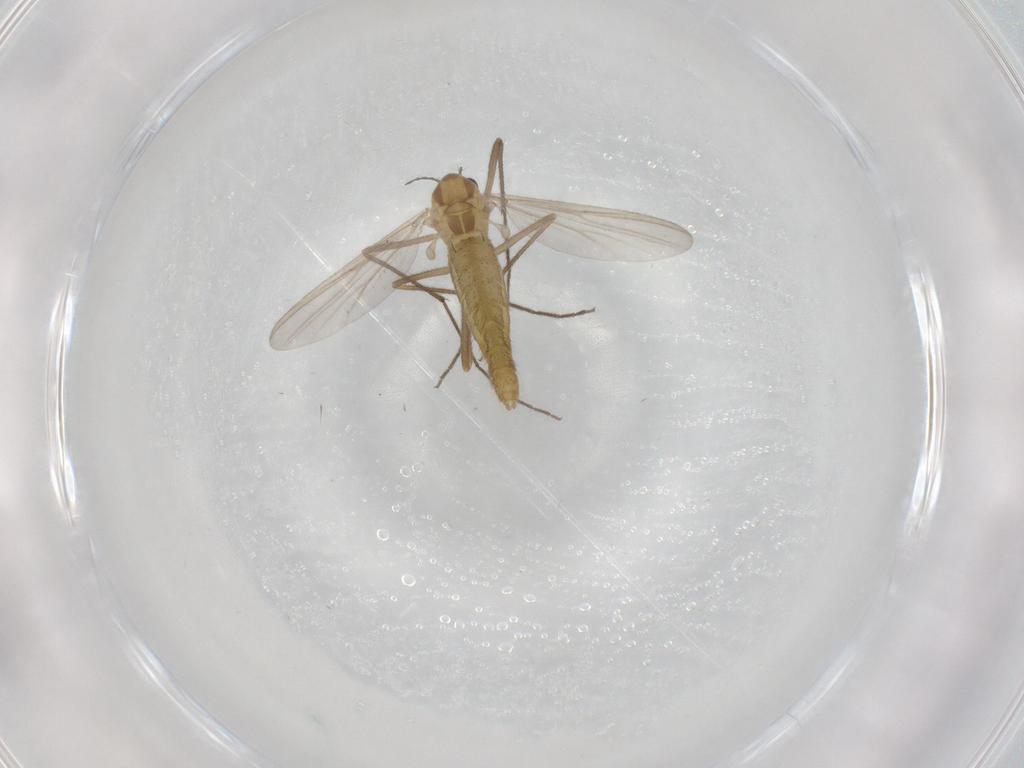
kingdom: Animalia
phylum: Arthropoda
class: Insecta
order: Diptera
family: Chironomidae
